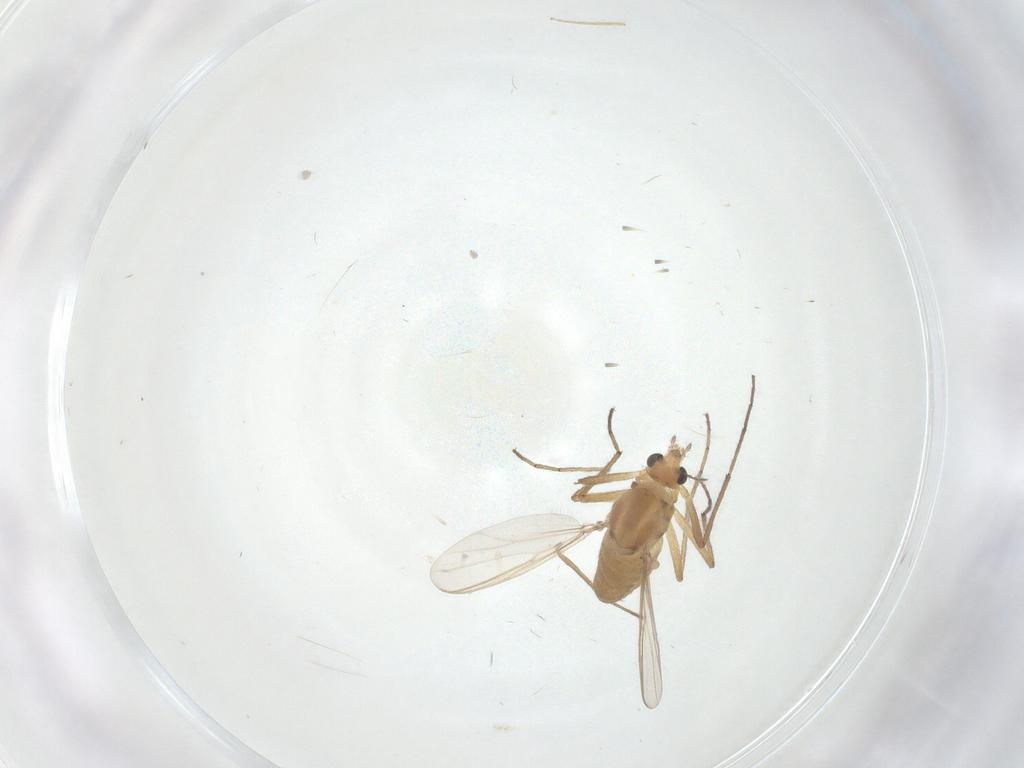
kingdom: Animalia
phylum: Arthropoda
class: Insecta
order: Diptera
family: Chironomidae
